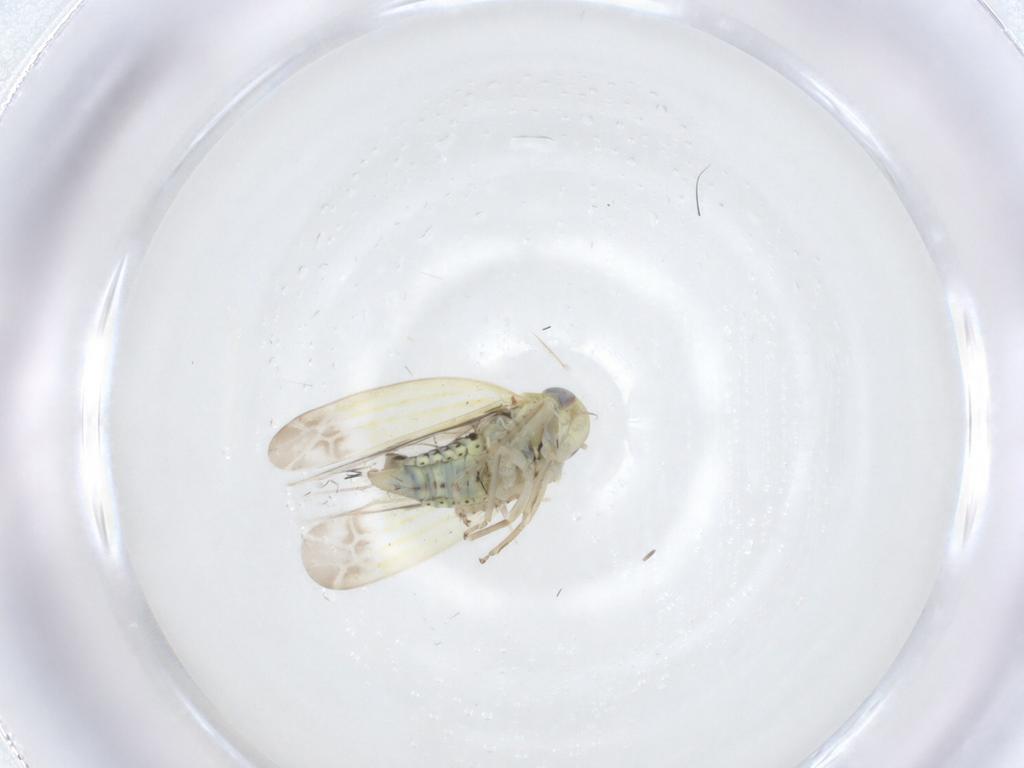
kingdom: Animalia
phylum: Arthropoda
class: Insecta
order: Hemiptera
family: Cicadellidae
